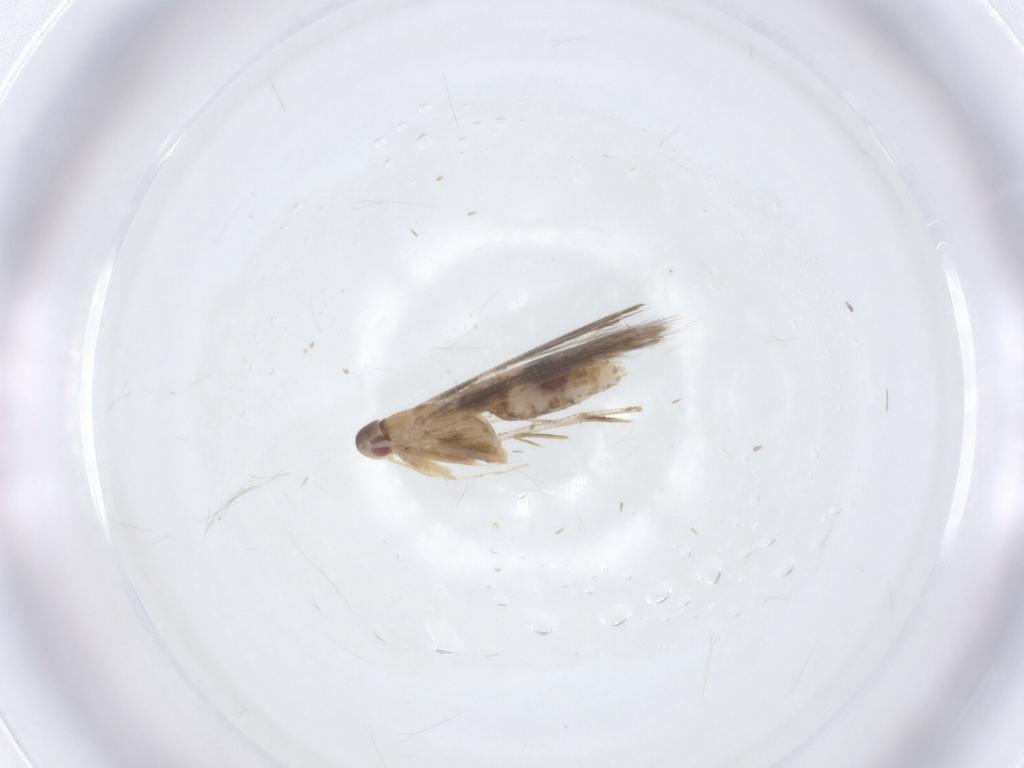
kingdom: Animalia
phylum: Arthropoda
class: Insecta
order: Lepidoptera
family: Cosmopterigidae
